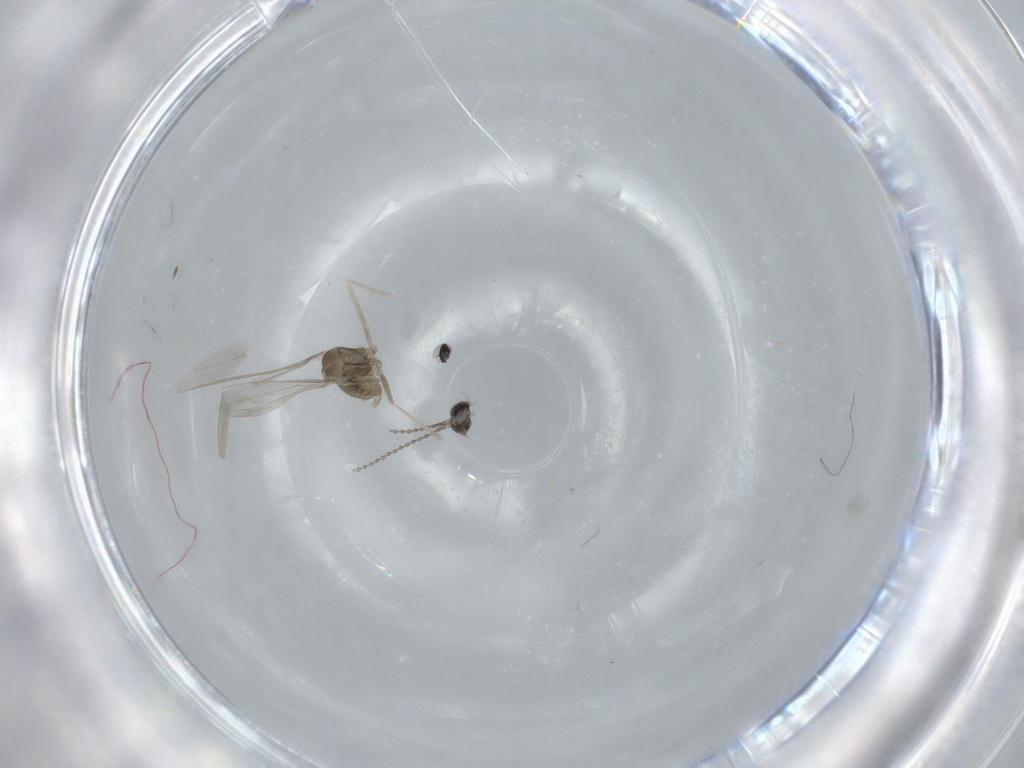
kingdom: Animalia
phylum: Arthropoda
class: Insecta
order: Diptera
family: Cecidomyiidae
